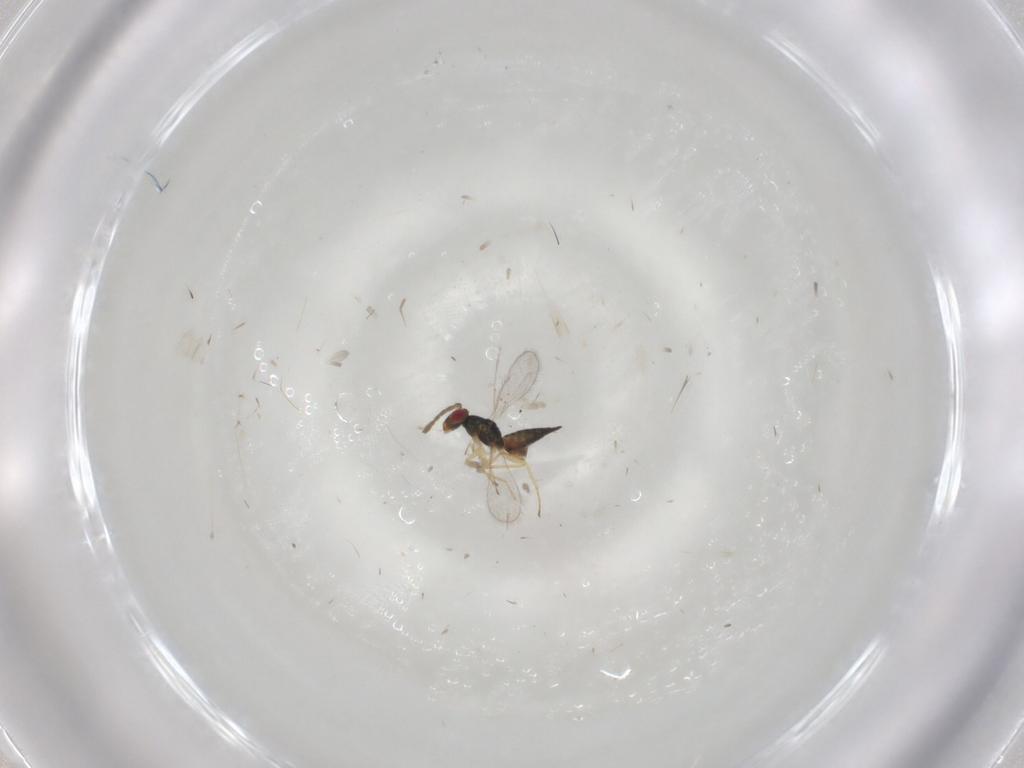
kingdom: Animalia
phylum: Arthropoda
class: Insecta
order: Hymenoptera
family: Eulophidae
